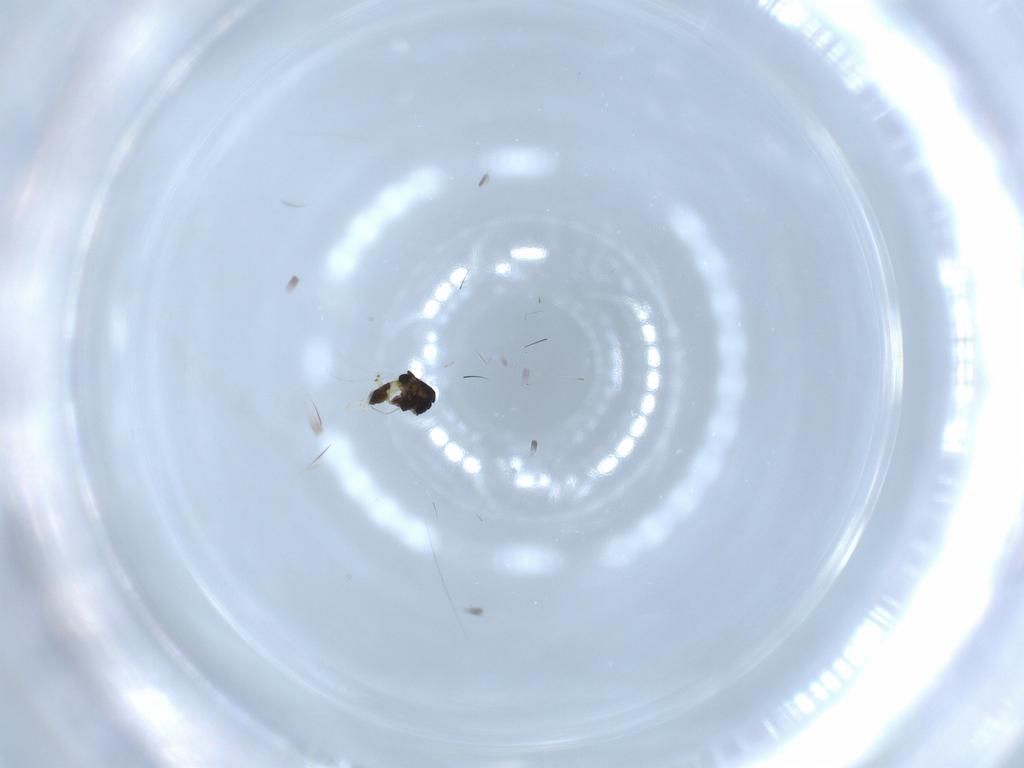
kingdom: Animalia
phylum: Arthropoda
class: Insecta
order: Diptera
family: Chironomidae
